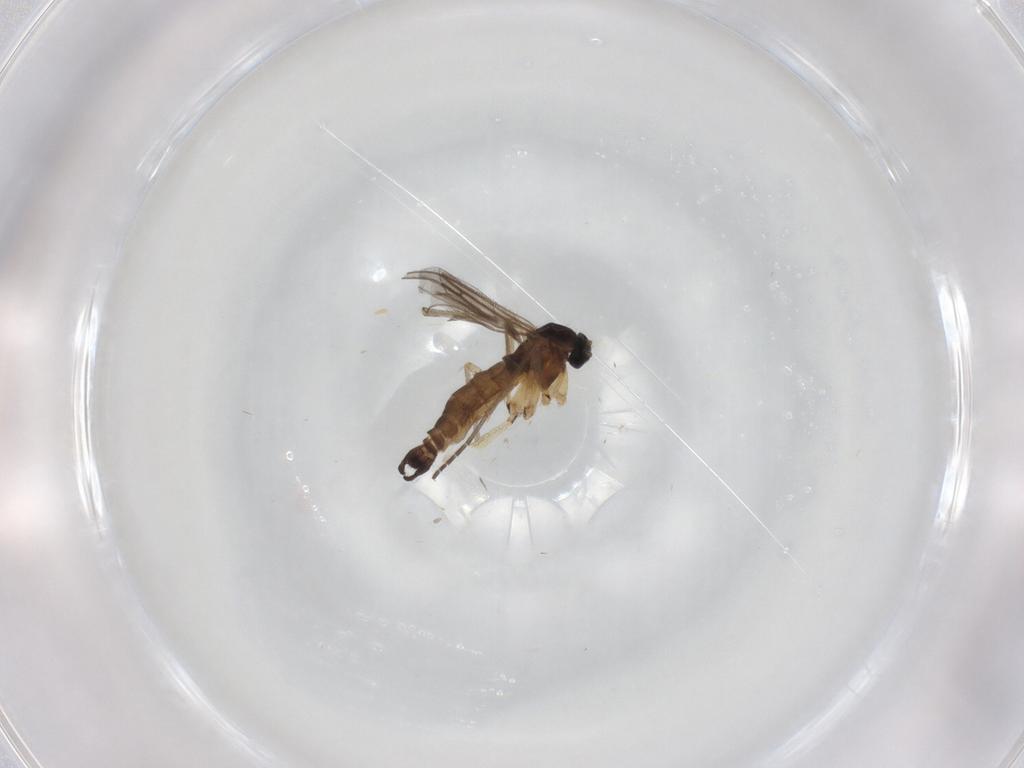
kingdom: Animalia
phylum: Arthropoda
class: Insecta
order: Diptera
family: Sciaridae
